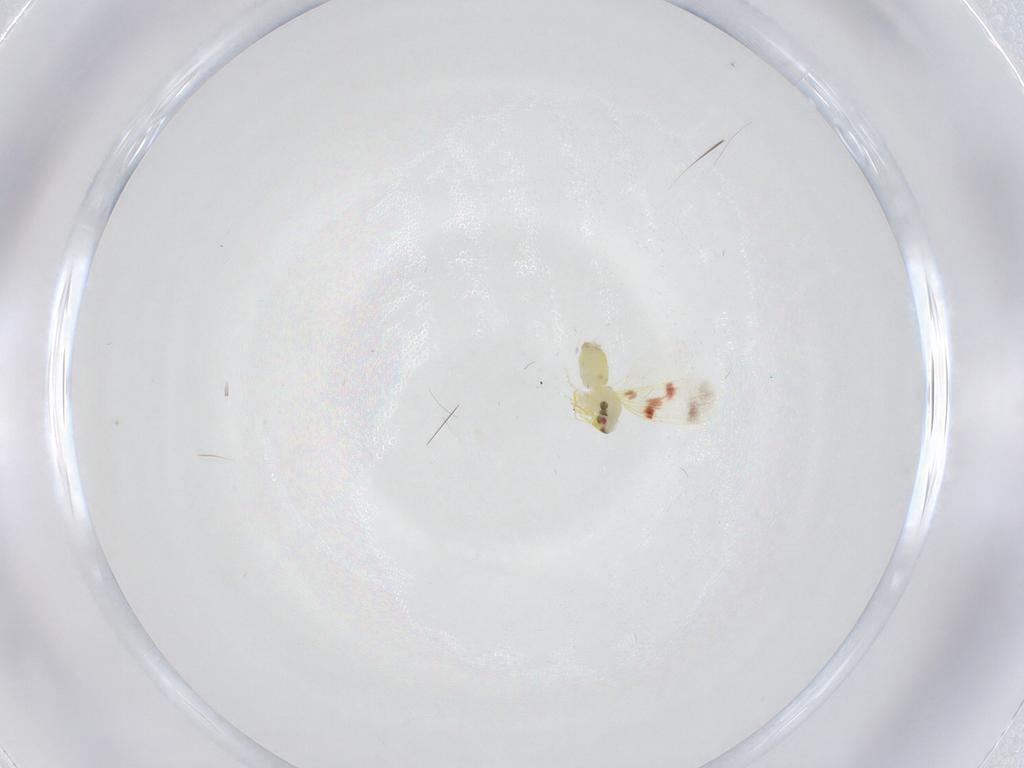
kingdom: Animalia
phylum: Arthropoda
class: Insecta
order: Hemiptera
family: Aleyrodidae
